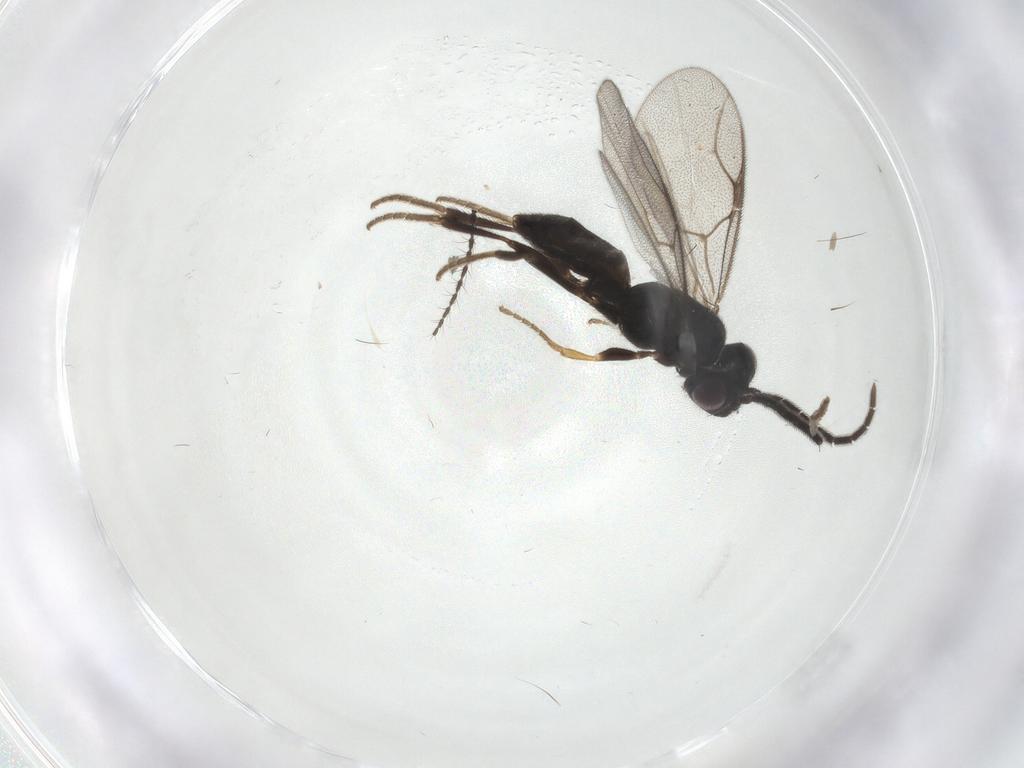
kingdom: Animalia
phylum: Arthropoda
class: Insecta
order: Hymenoptera
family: Dryinidae
